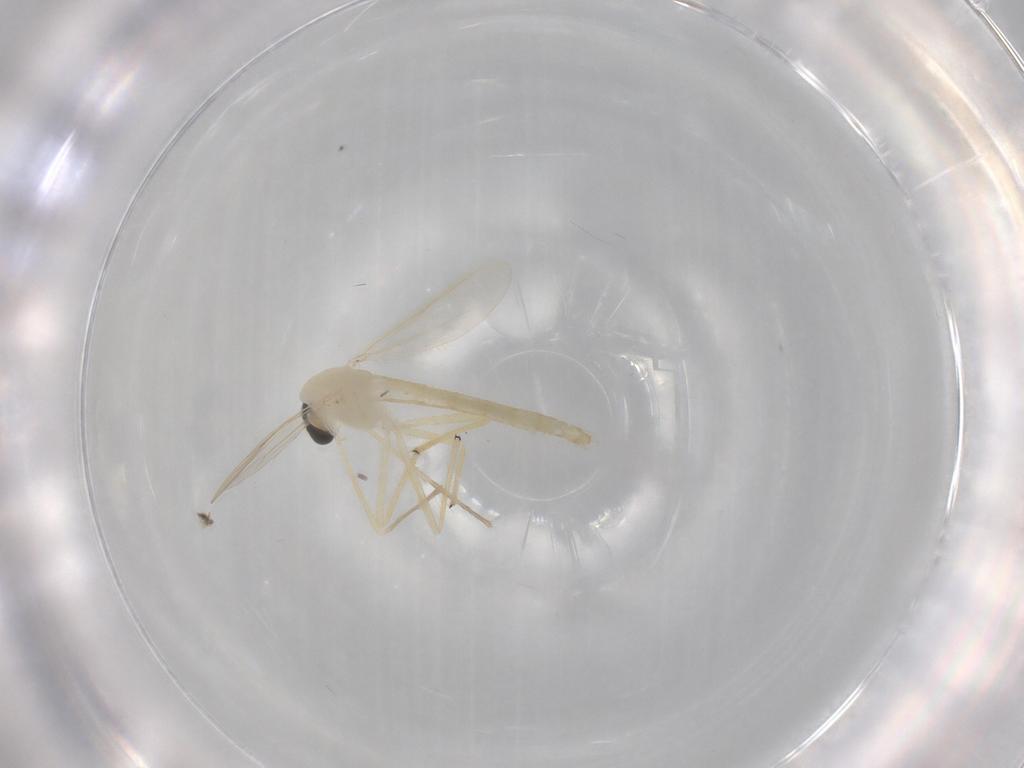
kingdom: Animalia
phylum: Arthropoda
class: Insecta
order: Diptera
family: Chironomidae
